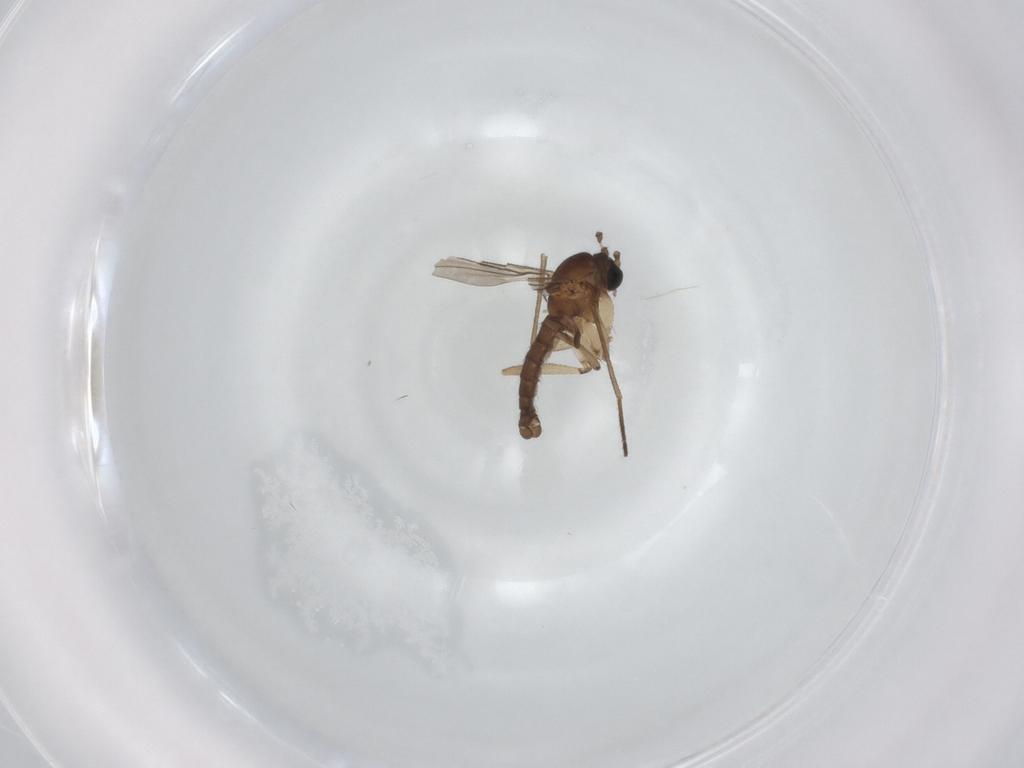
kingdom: Animalia
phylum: Arthropoda
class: Insecta
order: Diptera
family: Sciaridae
